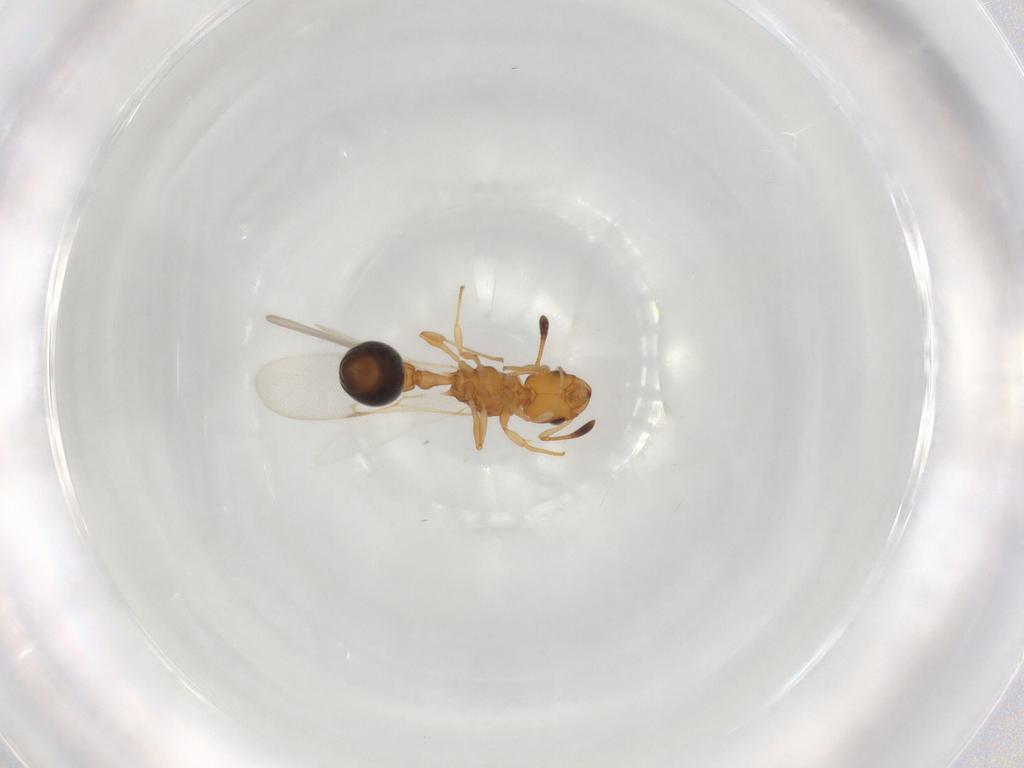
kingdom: Animalia
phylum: Arthropoda
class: Insecta
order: Hymenoptera
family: Formicidae
